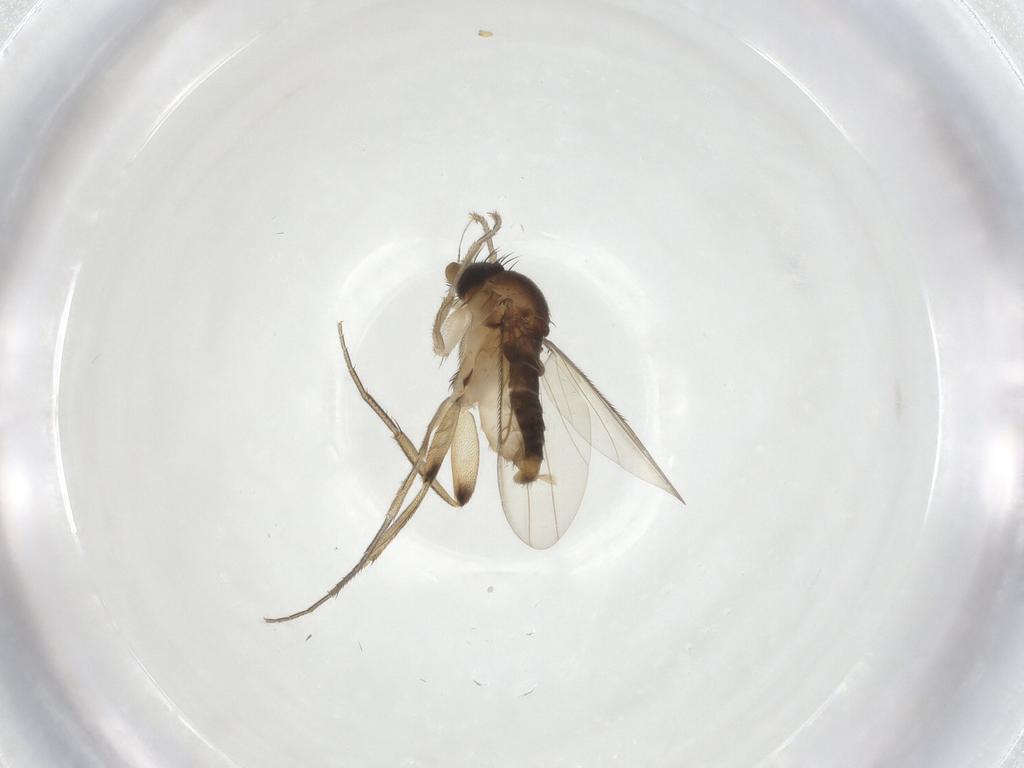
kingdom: Animalia
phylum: Arthropoda
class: Insecta
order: Diptera
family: Phoridae
